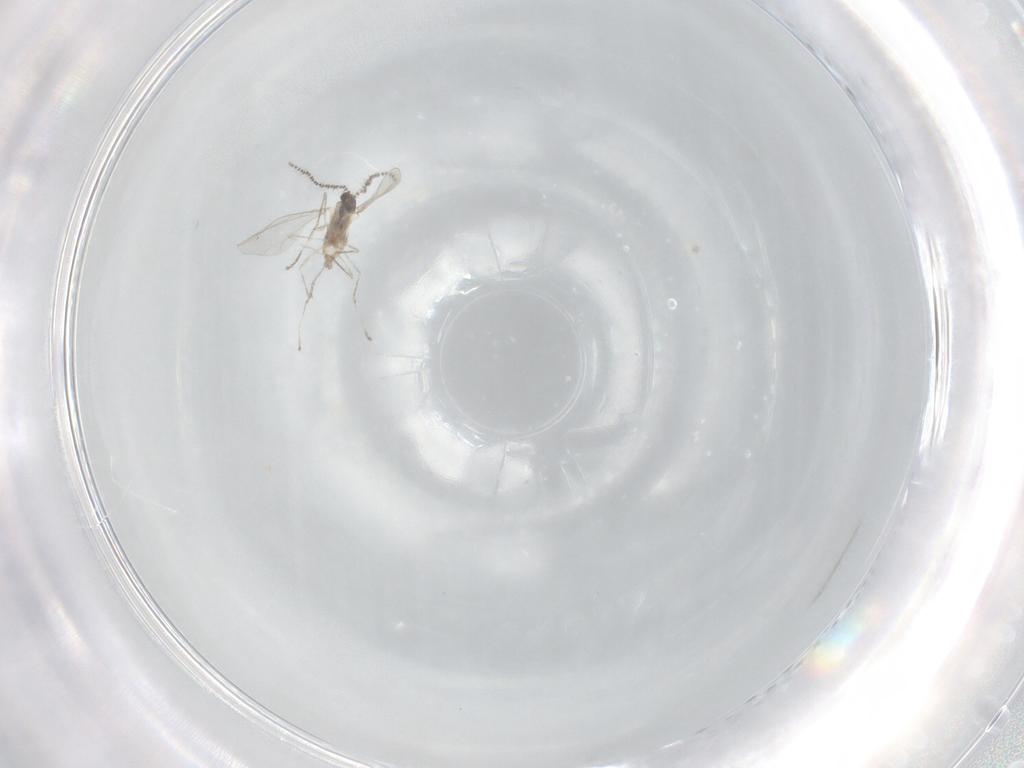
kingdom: Animalia
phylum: Arthropoda
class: Insecta
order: Diptera
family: Cecidomyiidae
